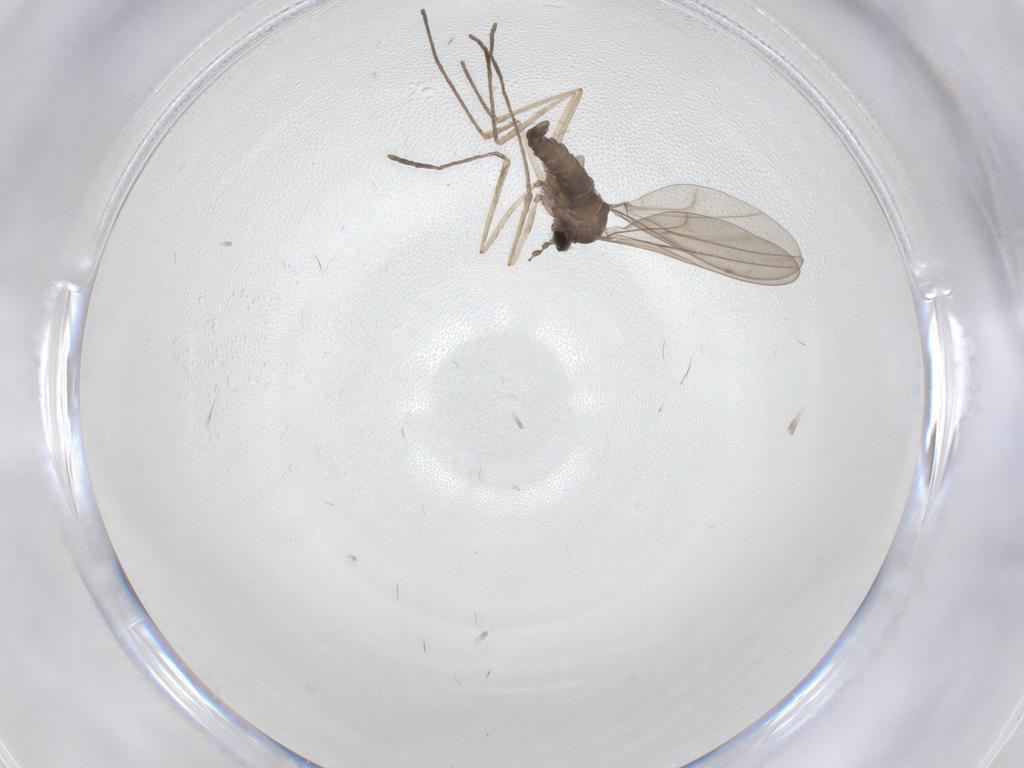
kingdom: Animalia
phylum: Arthropoda
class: Insecta
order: Diptera
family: Cecidomyiidae
